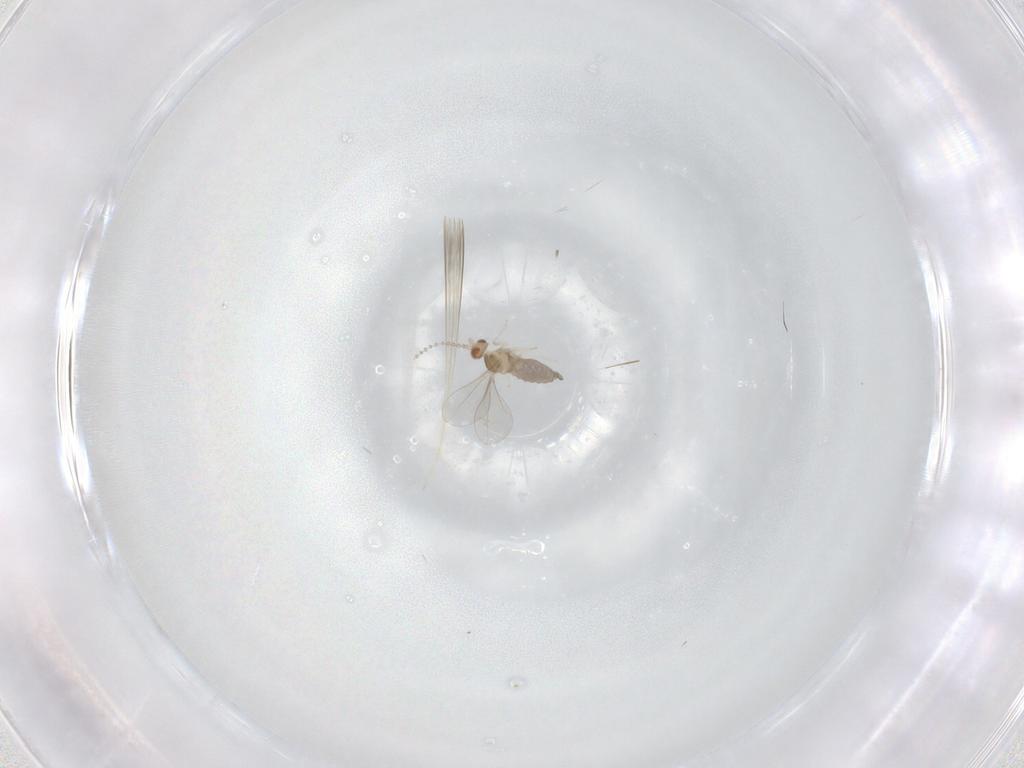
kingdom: Animalia
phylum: Arthropoda
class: Insecta
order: Diptera
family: Cecidomyiidae
